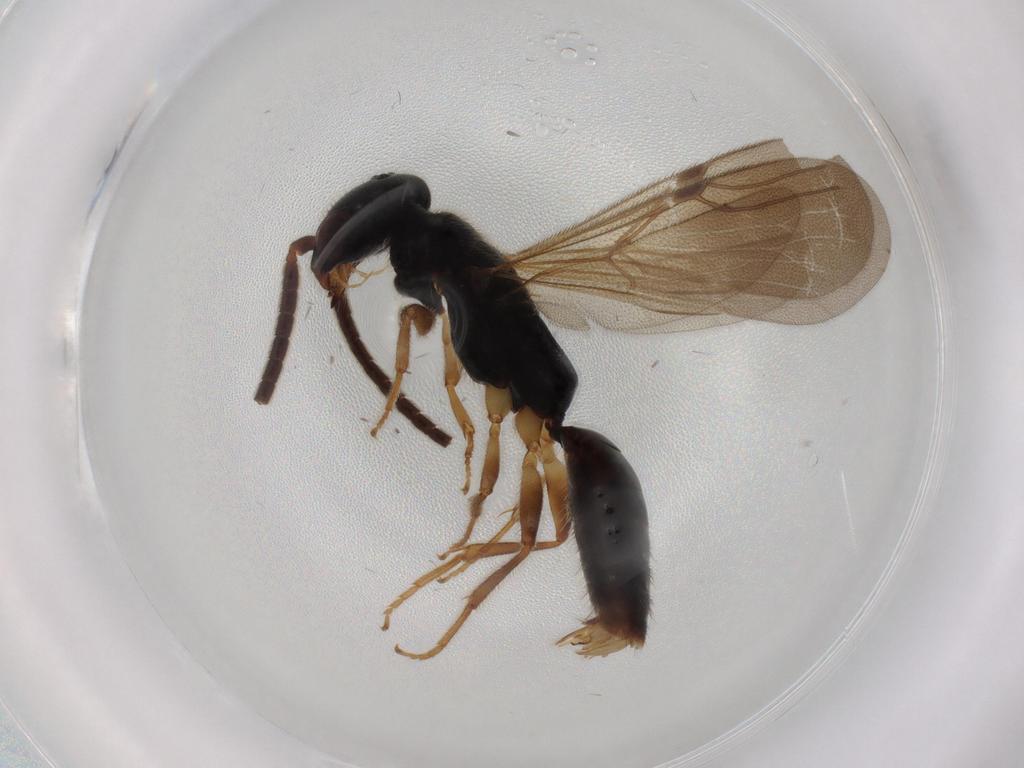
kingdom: Animalia
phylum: Arthropoda
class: Insecta
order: Hymenoptera
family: Bethylidae
